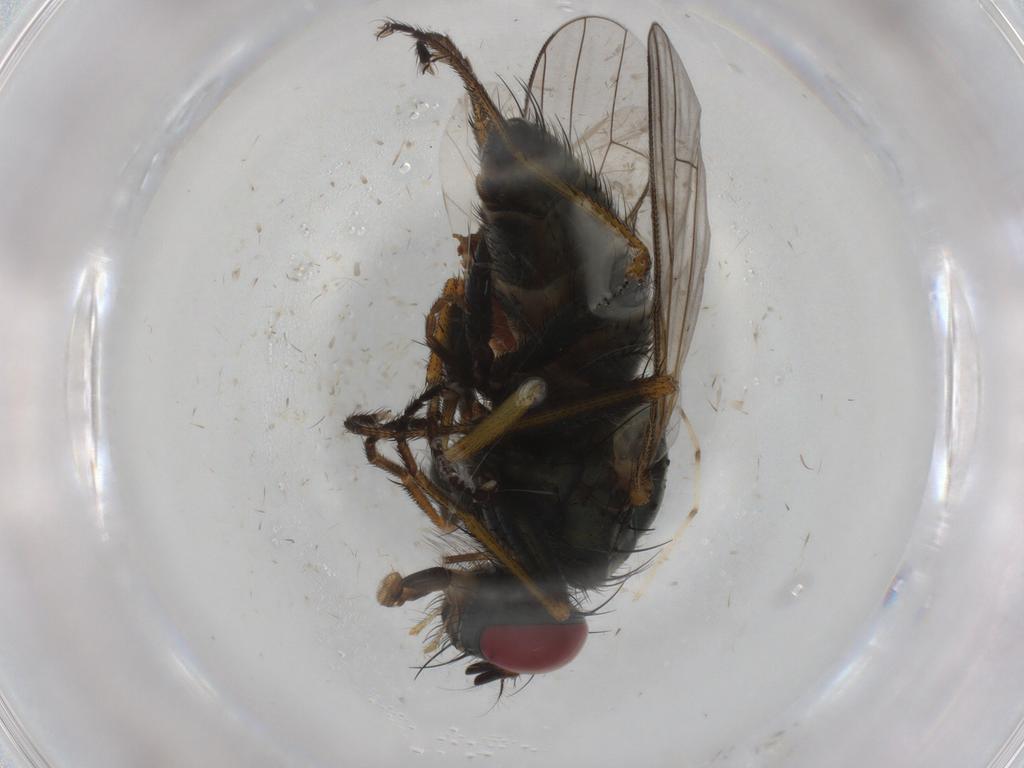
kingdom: Animalia
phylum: Arthropoda
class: Insecta
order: Diptera
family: Muscidae
